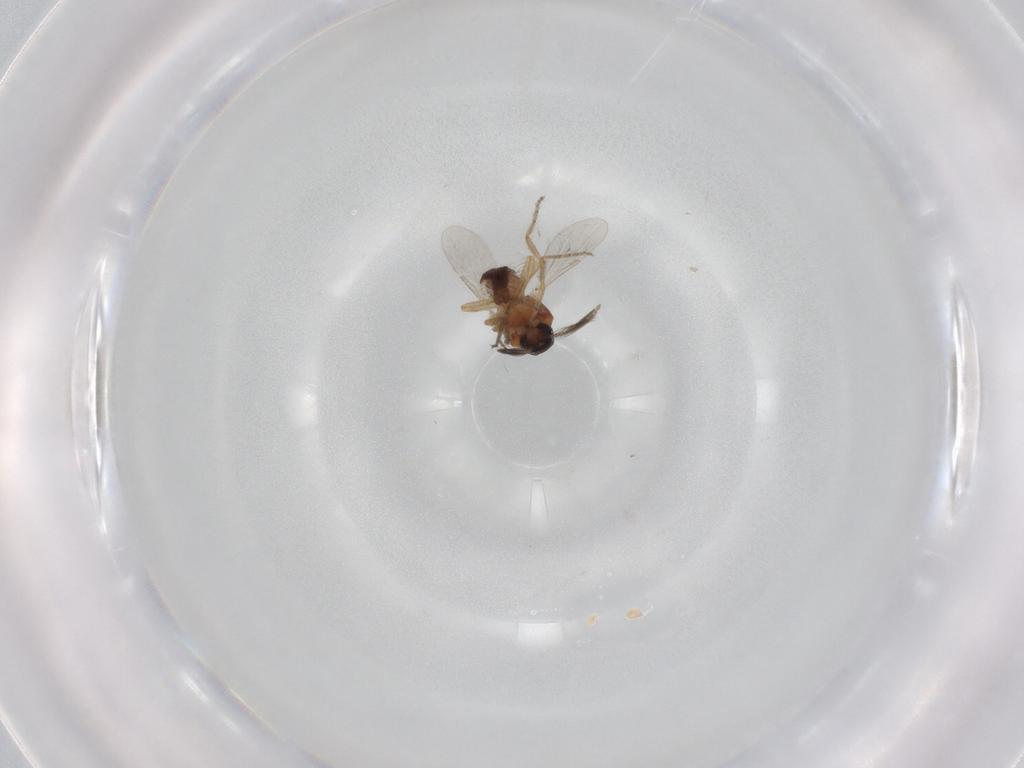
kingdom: Animalia
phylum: Arthropoda
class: Insecta
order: Diptera
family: Ceratopogonidae
